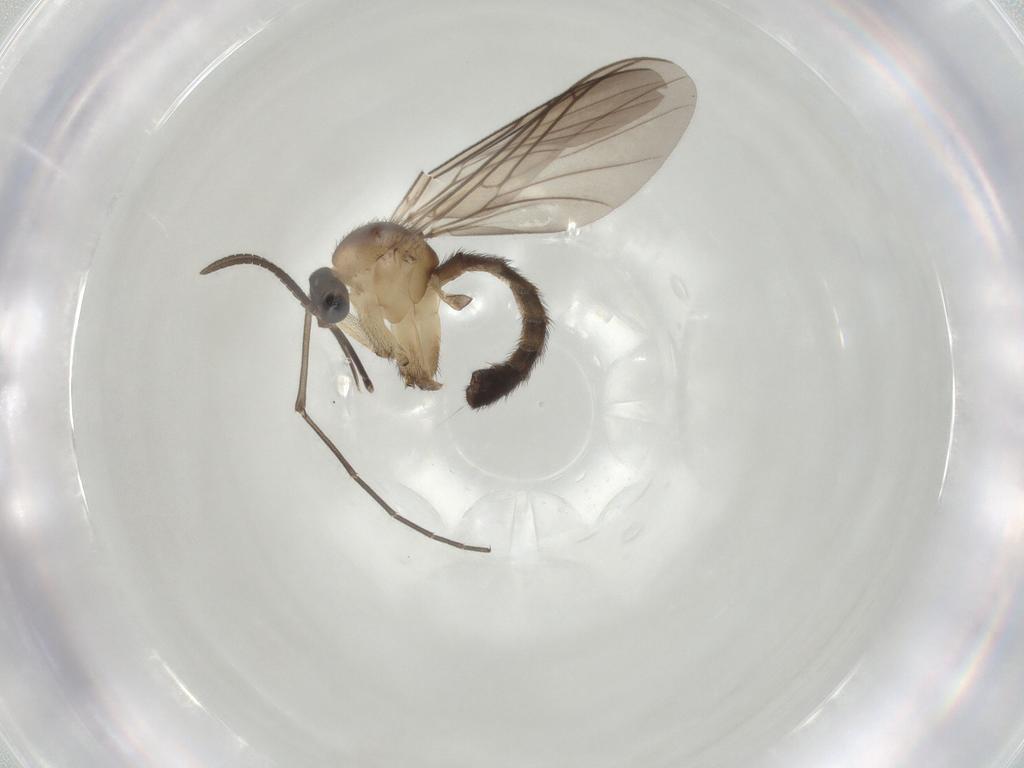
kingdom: Animalia
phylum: Arthropoda
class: Insecta
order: Diptera
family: Keroplatidae
